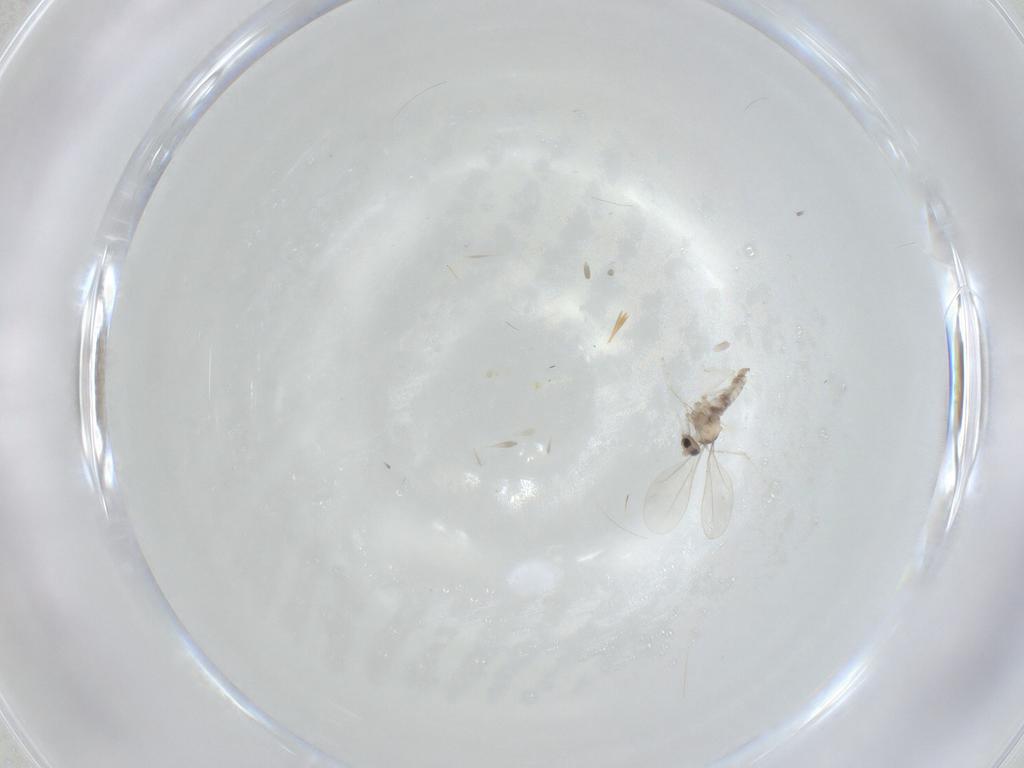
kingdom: Animalia
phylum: Arthropoda
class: Insecta
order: Diptera
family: Cecidomyiidae
